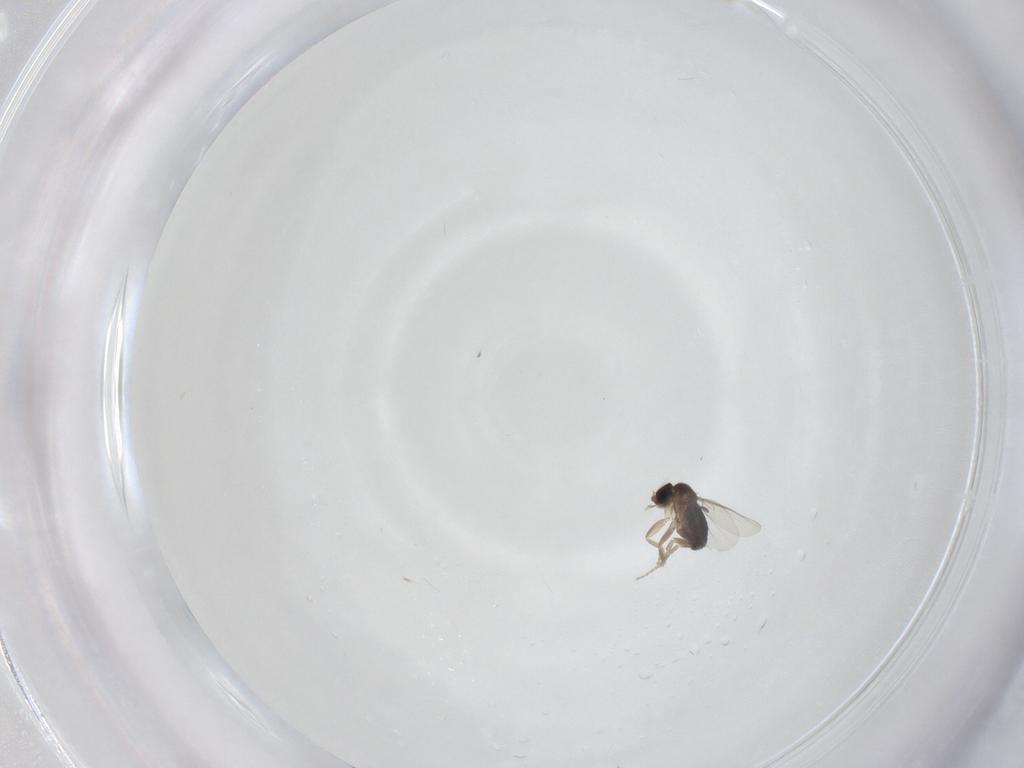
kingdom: Animalia
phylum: Arthropoda
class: Insecta
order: Diptera
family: Phoridae
